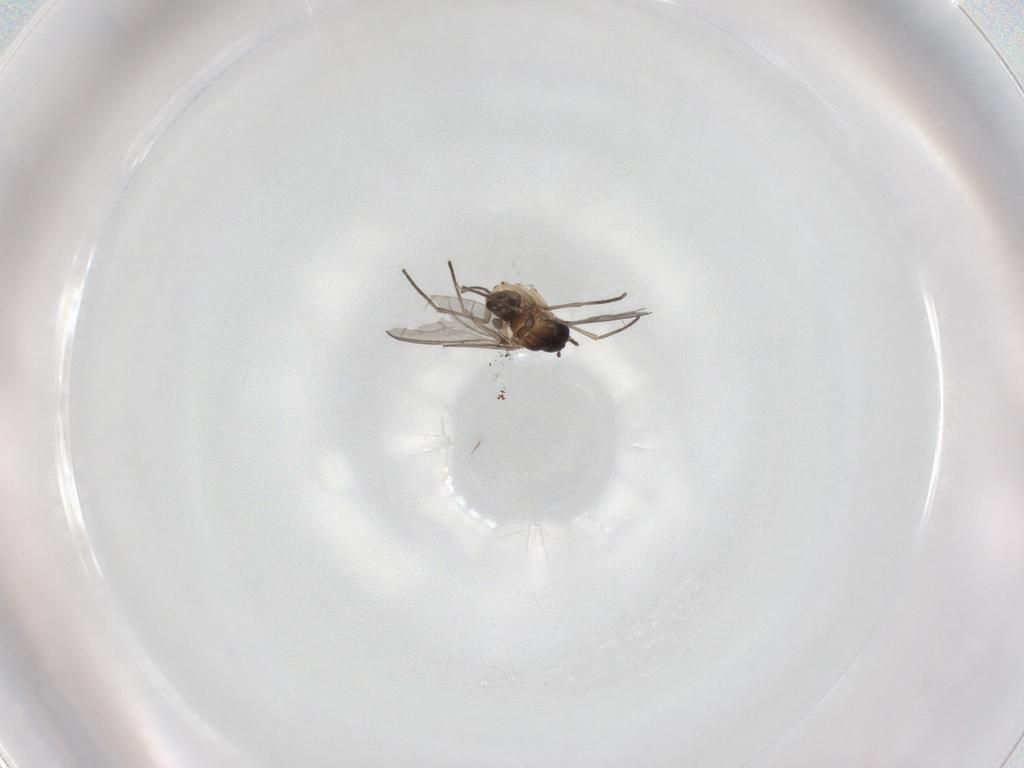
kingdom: Animalia
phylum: Arthropoda
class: Insecta
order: Diptera
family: Sciaridae
